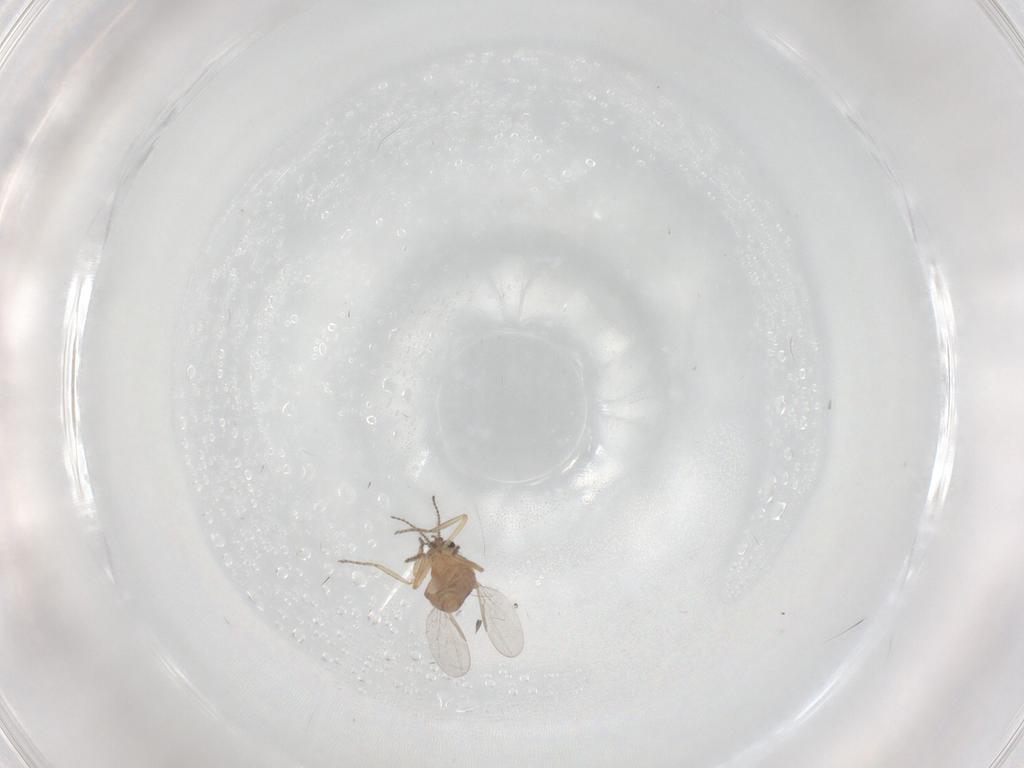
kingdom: Animalia
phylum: Arthropoda
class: Insecta
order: Diptera
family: Ceratopogonidae
